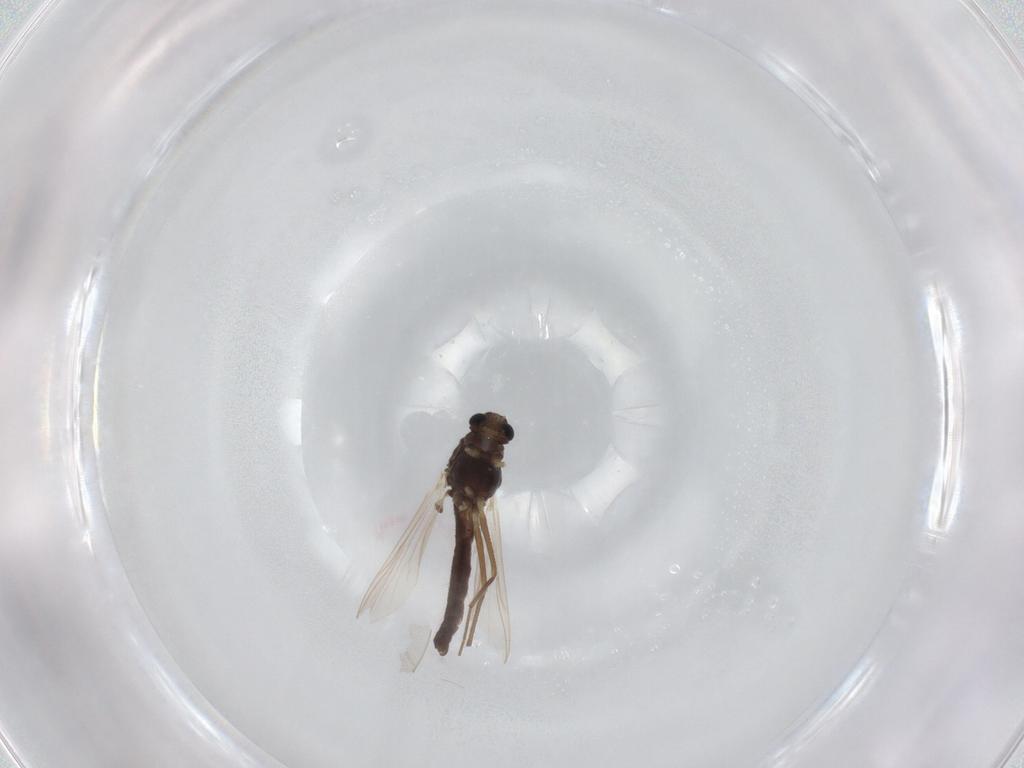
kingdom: Animalia
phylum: Arthropoda
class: Insecta
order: Diptera
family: Chironomidae
